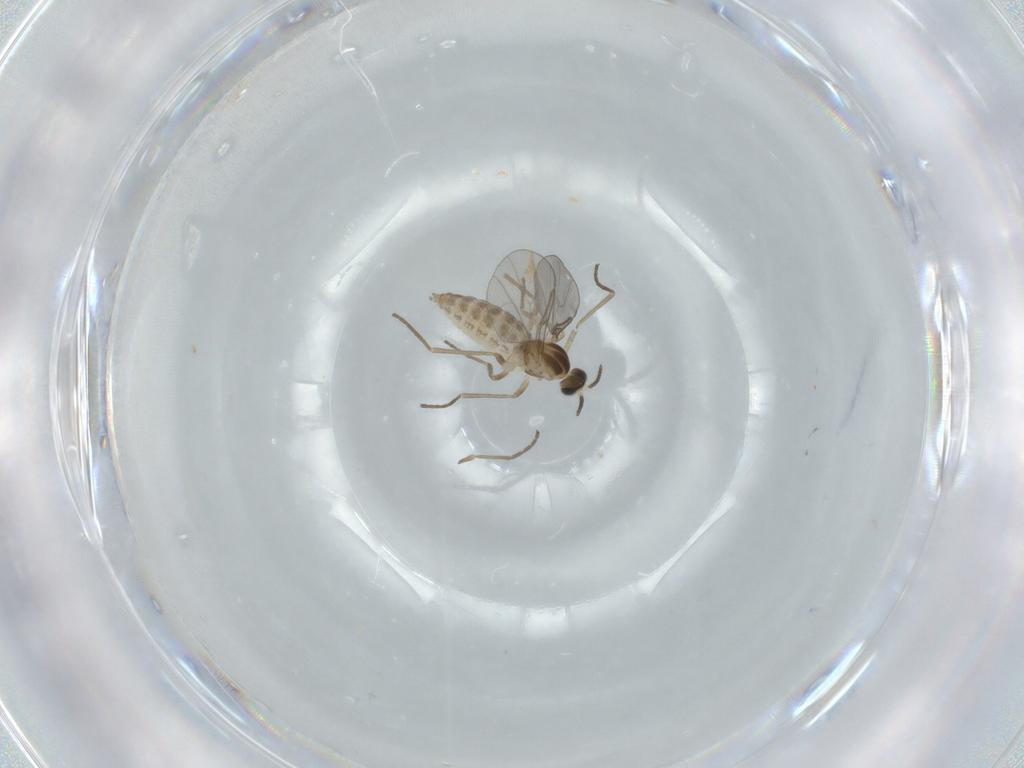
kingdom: Animalia
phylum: Arthropoda
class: Insecta
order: Diptera
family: Cecidomyiidae
